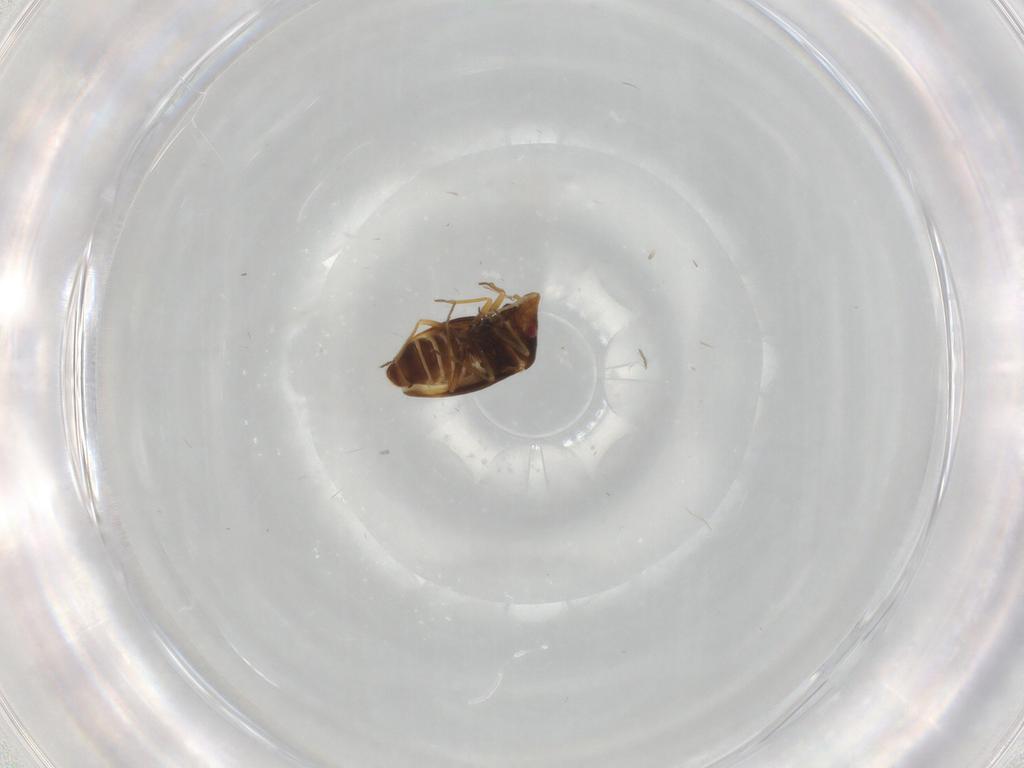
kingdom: Animalia
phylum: Arthropoda
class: Insecta
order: Hemiptera
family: Schizopteridae
